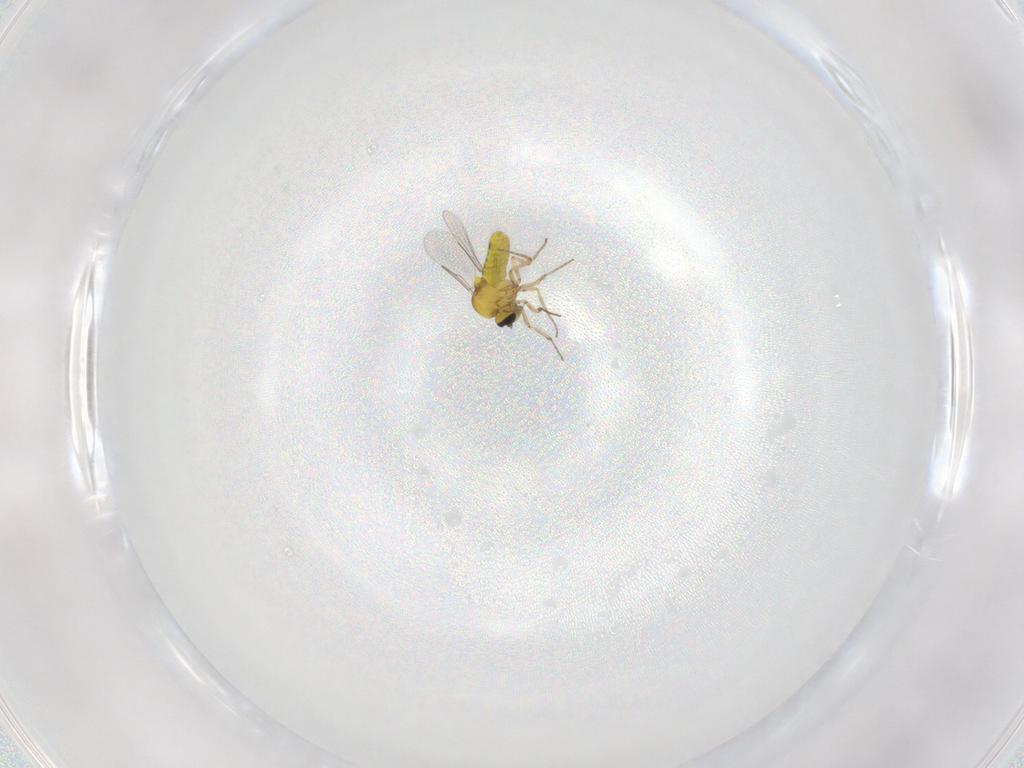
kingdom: Animalia
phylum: Arthropoda
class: Insecta
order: Diptera
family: Ceratopogonidae
